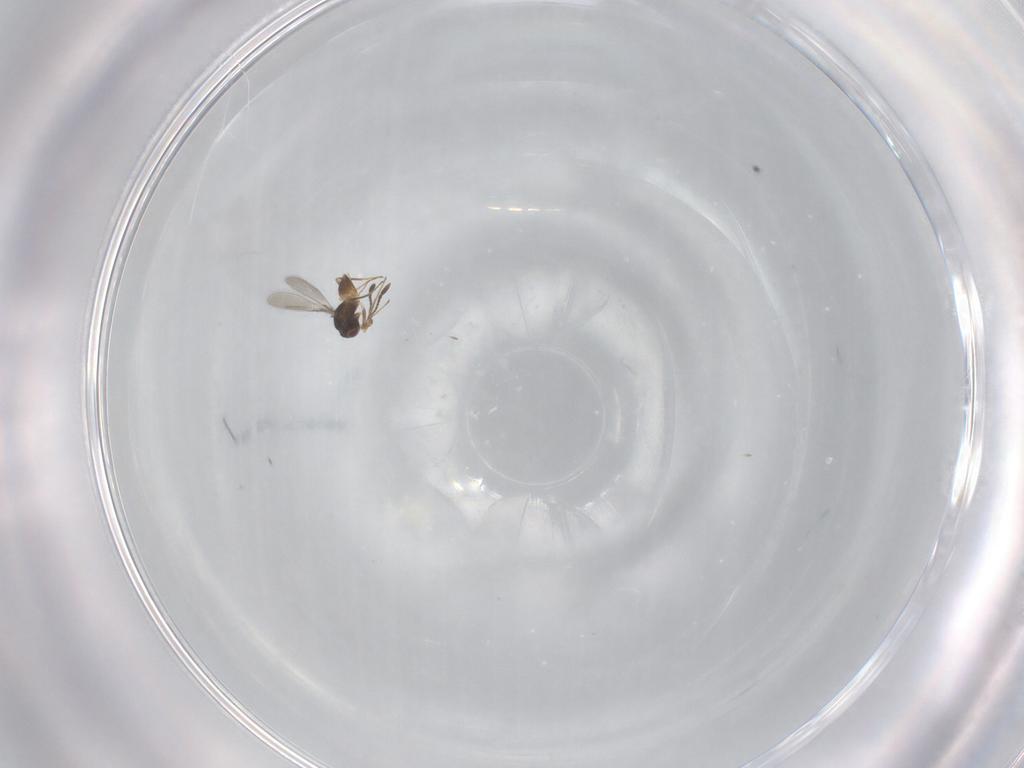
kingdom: Animalia
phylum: Arthropoda
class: Insecta
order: Hymenoptera
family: Mymaridae
